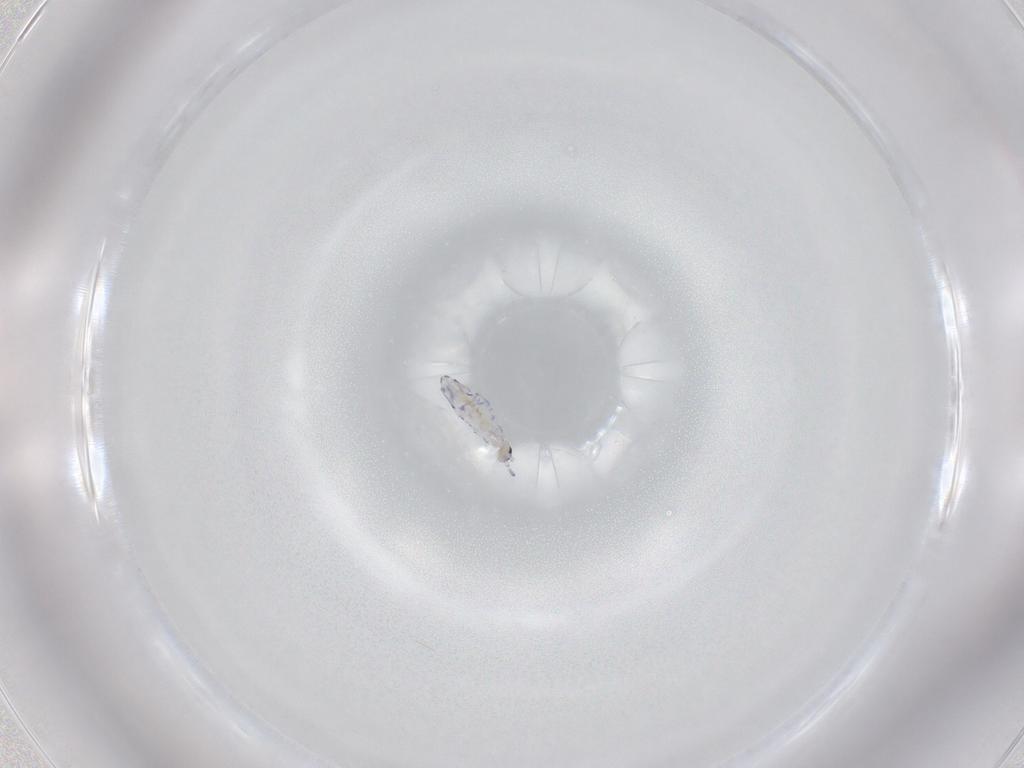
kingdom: Animalia
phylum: Arthropoda
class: Collembola
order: Entomobryomorpha
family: Entomobryidae
